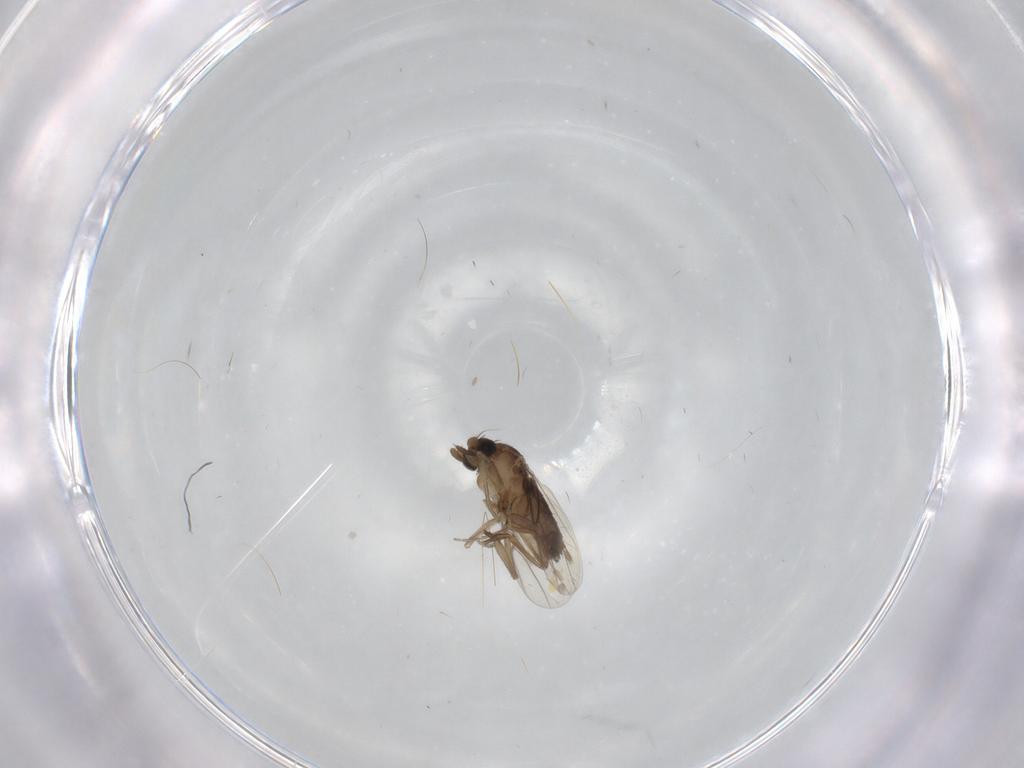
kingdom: Animalia
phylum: Arthropoda
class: Insecta
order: Diptera
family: Phoridae
